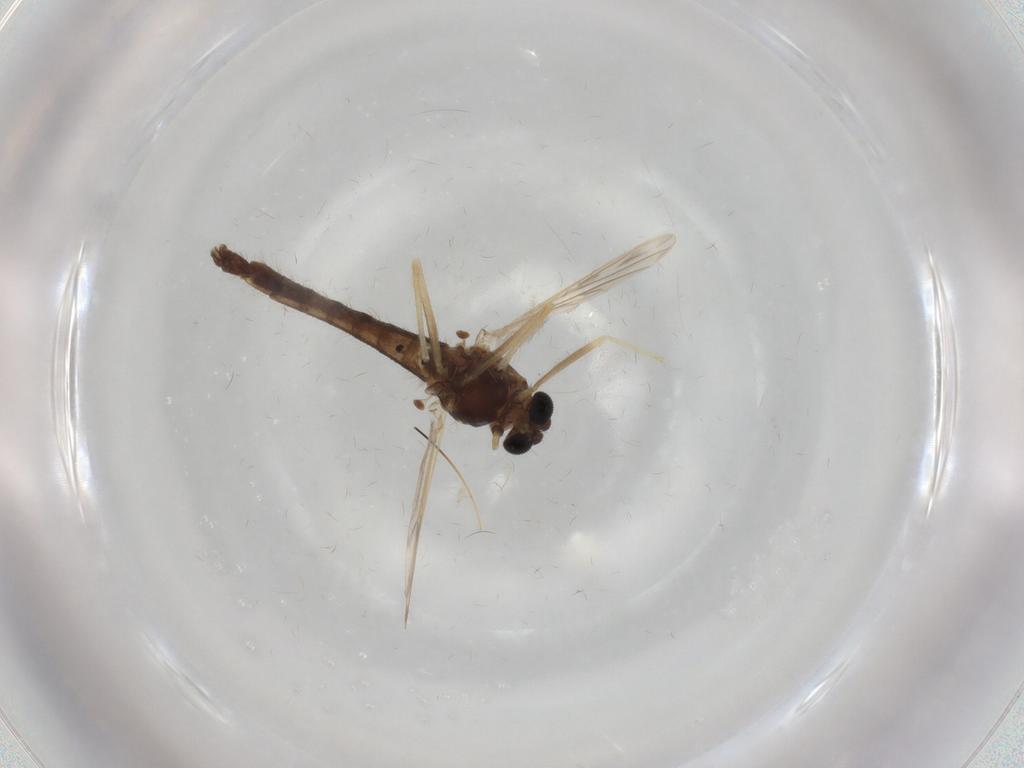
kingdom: Animalia
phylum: Arthropoda
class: Insecta
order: Diptera
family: Chironomidae
